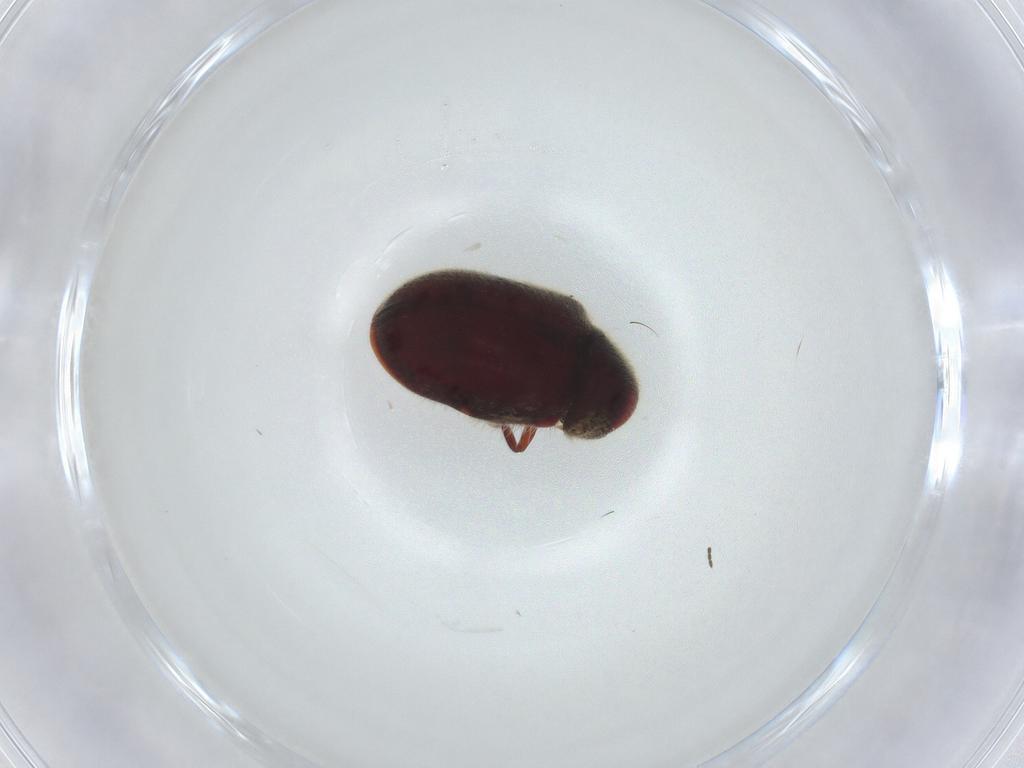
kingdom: Animalia
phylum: Arthropoda
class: Insecta
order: Coleoptera
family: Ptinidae
